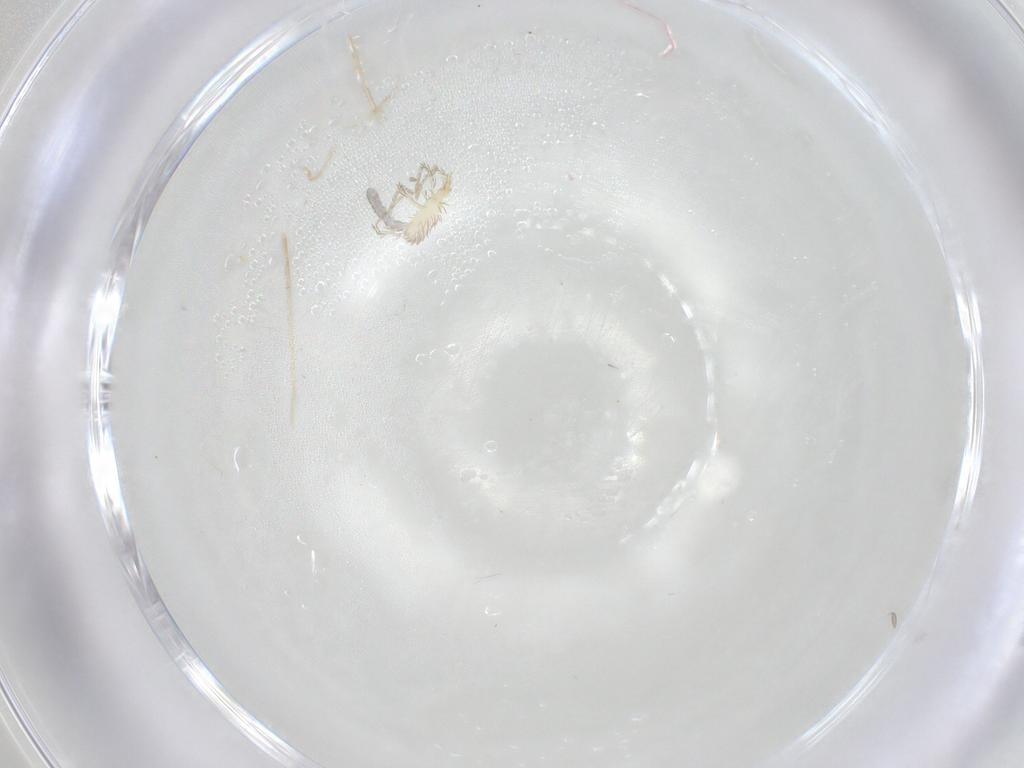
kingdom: Animalia
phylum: Arthropoda
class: Arachnida
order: Trombidiformes
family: Erythraeidae
